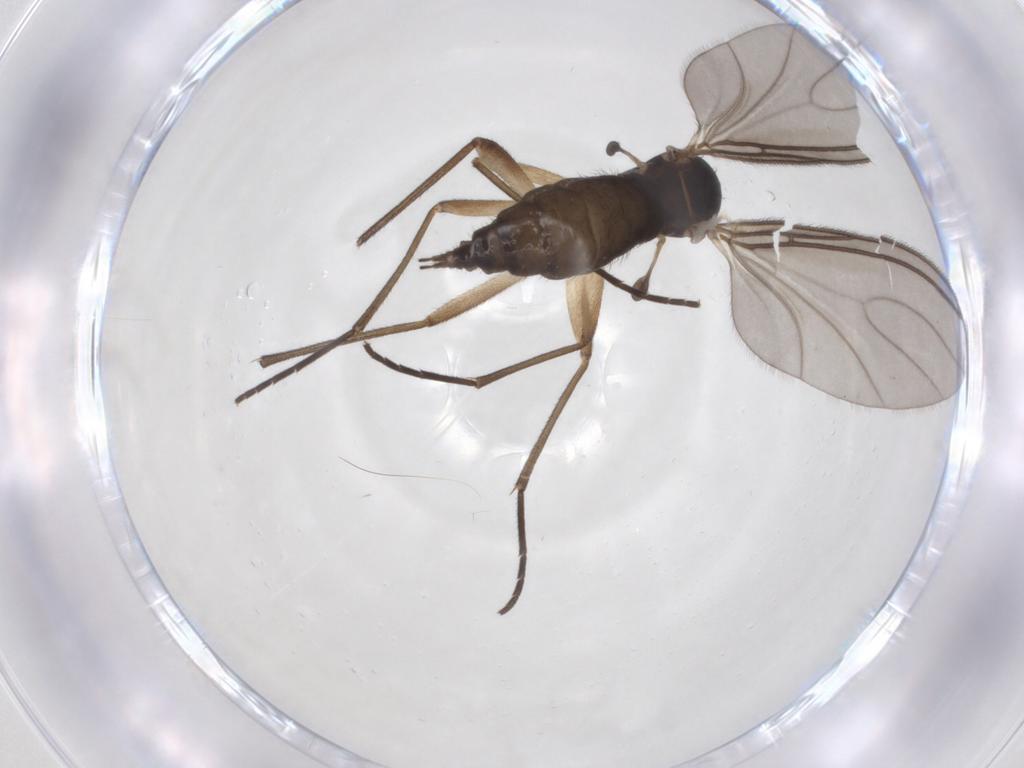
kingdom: Animalia
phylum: Arthropoda
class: Insecta
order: Diptera
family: Sciaridae
